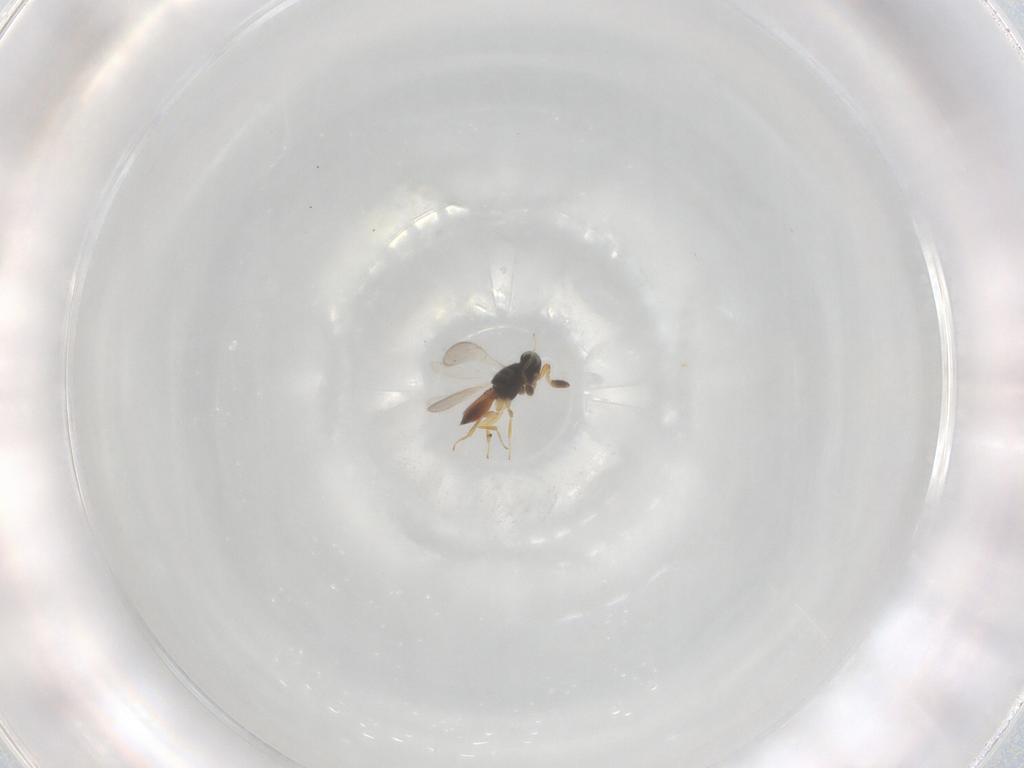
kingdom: Animalia
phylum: Arthropoda
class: Insecta
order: Hymenoptera
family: Scelionidae
